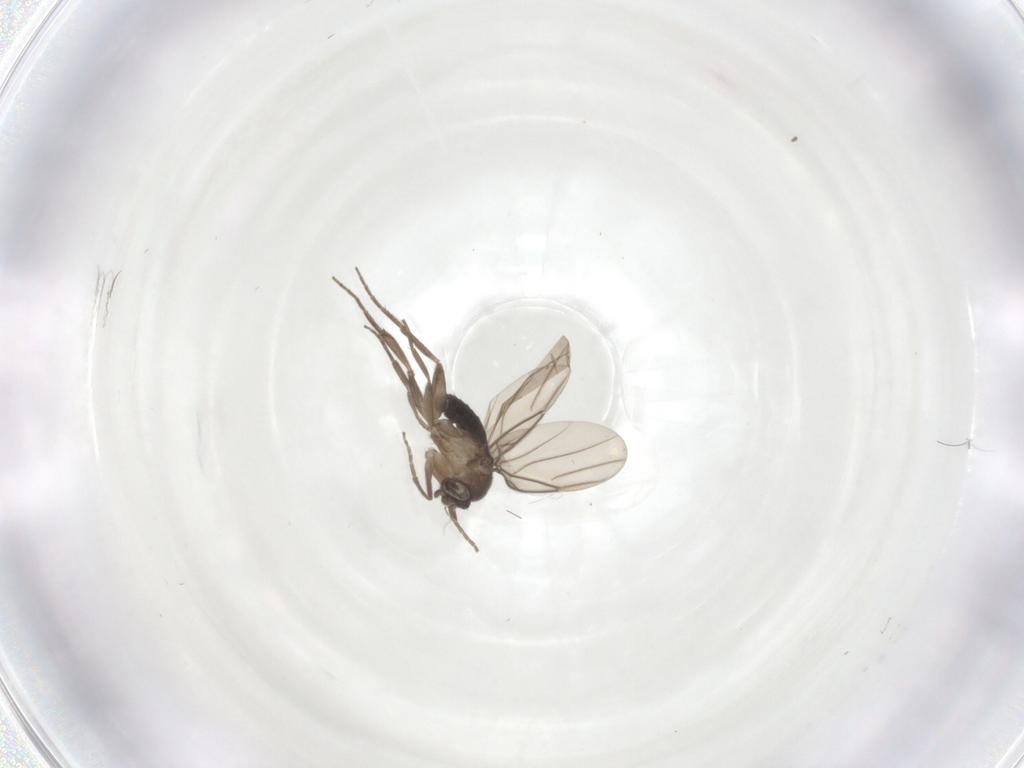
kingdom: Animalia
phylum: Arthropoda
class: Insecta
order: Diptera
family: Phoridae
